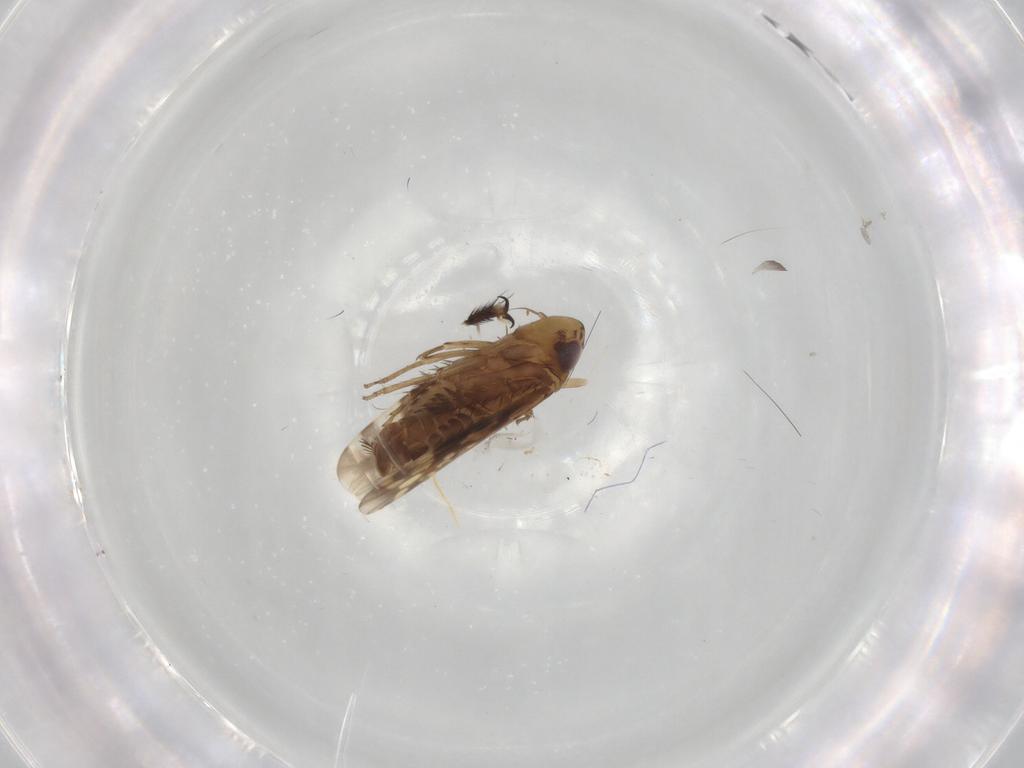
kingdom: Animalia
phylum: Arthropoda
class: Insecta
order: Hemiptera
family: Cicadellidae
